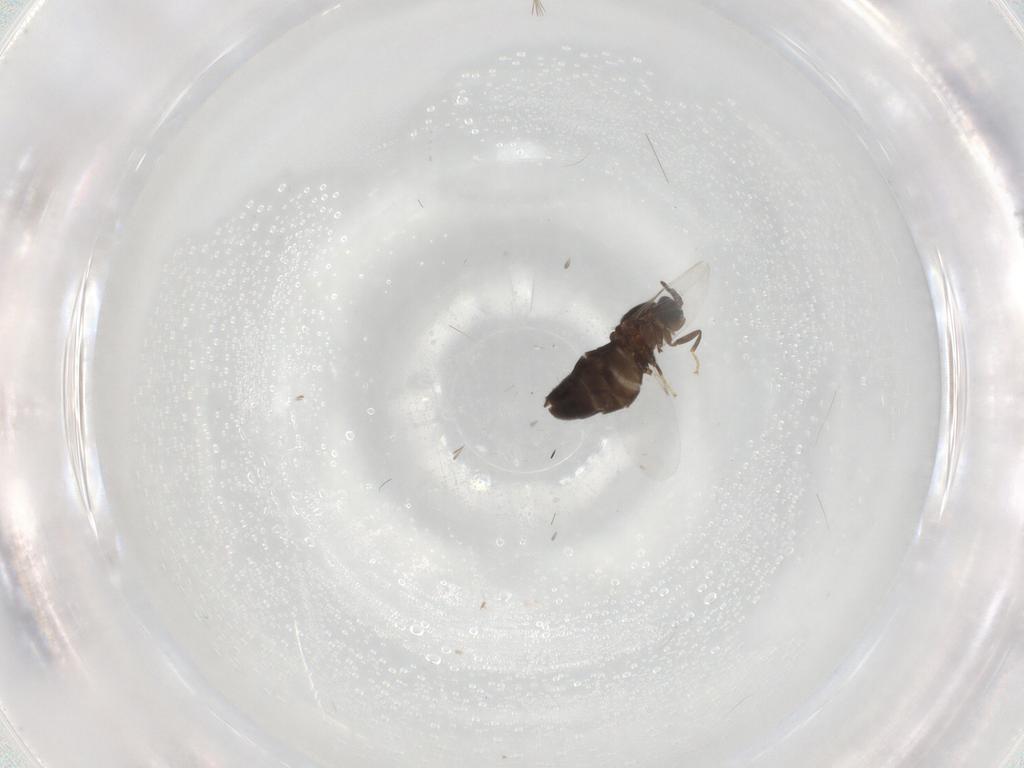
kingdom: Animalia
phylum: Arthropoda
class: Insecta
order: Diptera
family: Scatopsidae
